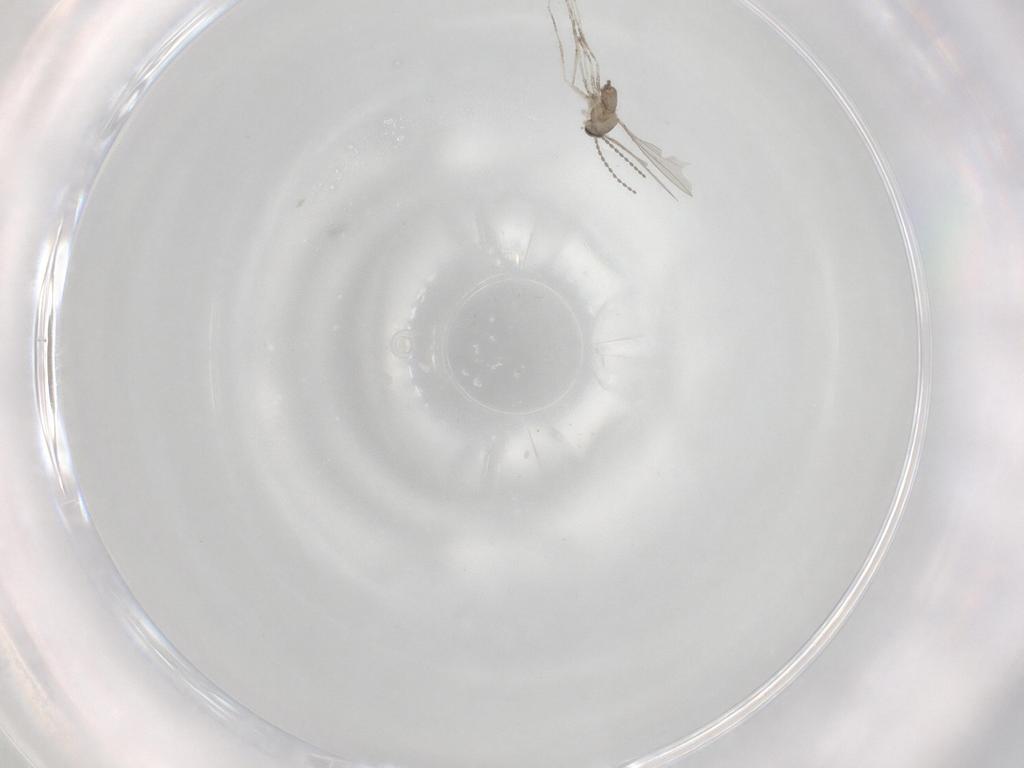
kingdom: Animalia
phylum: Arthropoda
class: Insecta
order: Diptera
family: Cecidomyiidae
